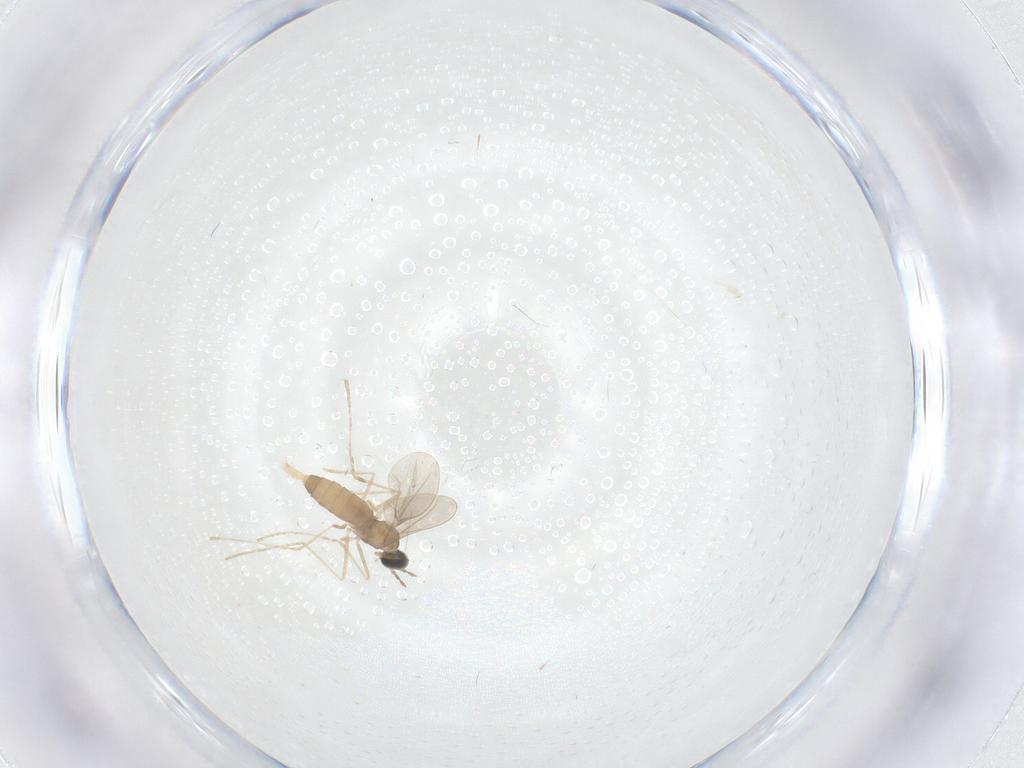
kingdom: Animalia
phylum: Arthropoda
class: Insecta
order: Diptera
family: Cecidomyiidae
